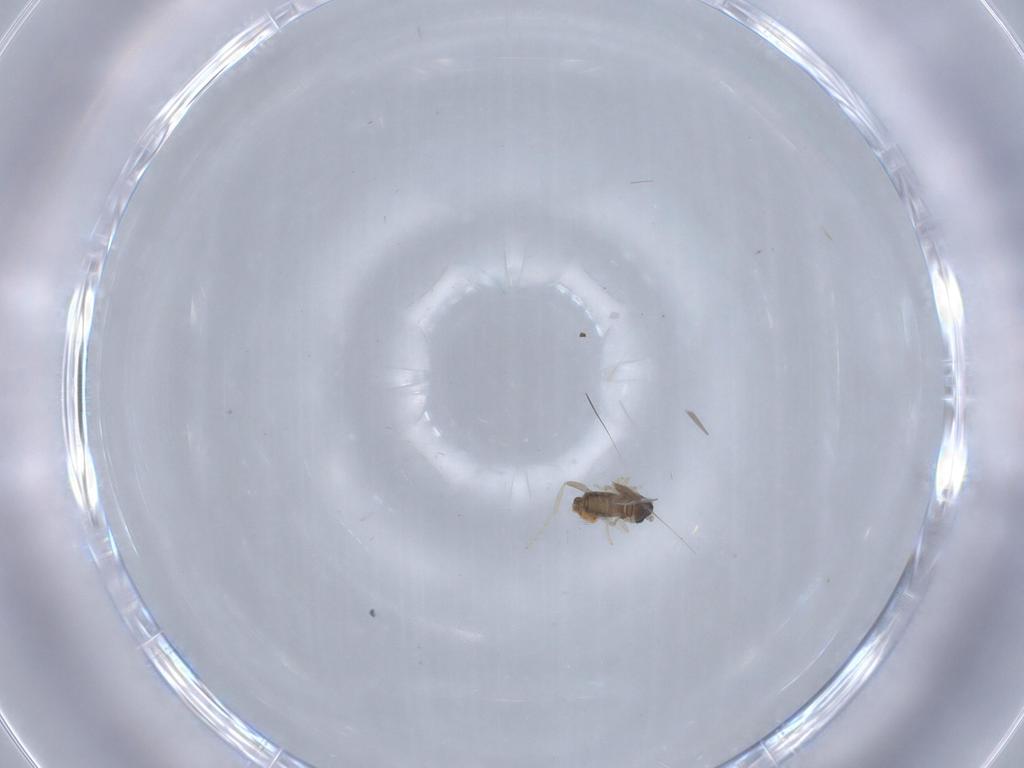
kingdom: Animalia
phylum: Arthropoda
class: Insecta
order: Diptera
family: Cecidomyiidae
